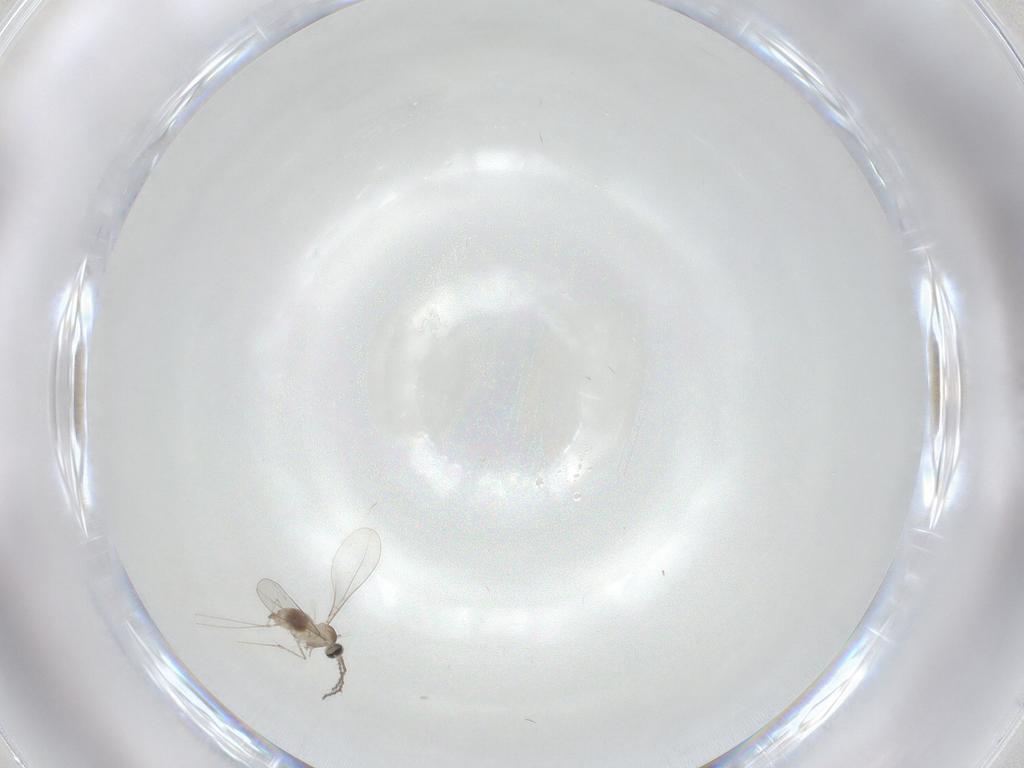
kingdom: Animalia
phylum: Arthropoda
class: Insecta
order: Diptera
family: Cecidomyiidae
